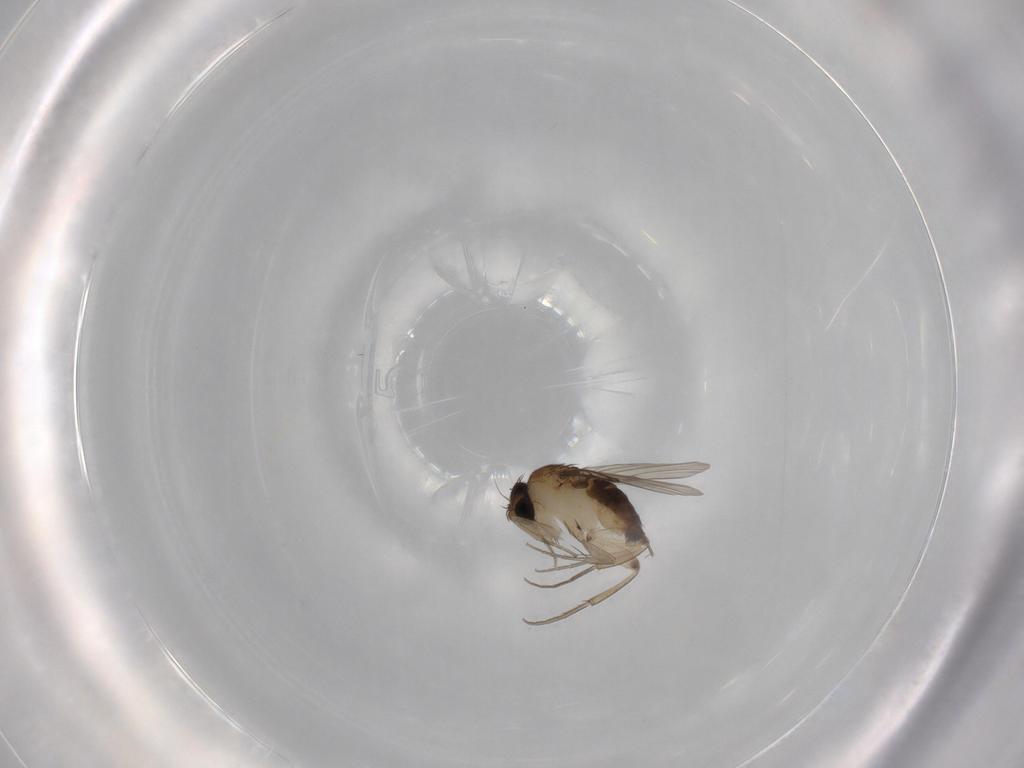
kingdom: Animalia
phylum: Arthropoda
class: Insecta
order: Diptera
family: Phoridae
